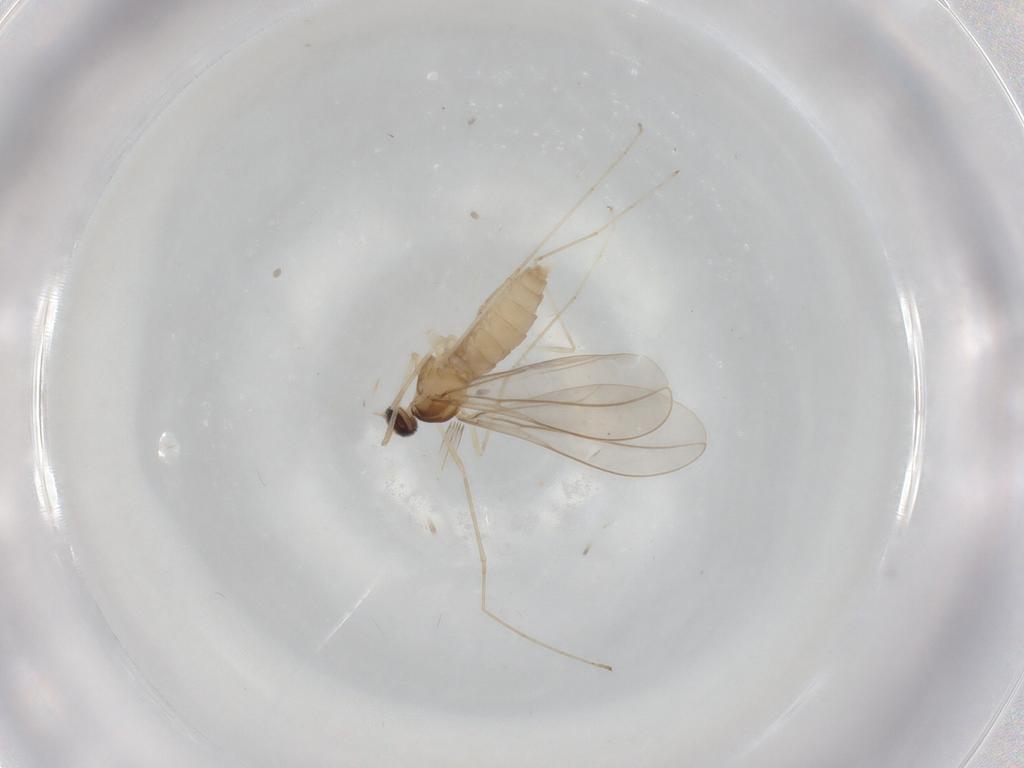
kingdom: Animalia
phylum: Arthropoda
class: Insecta
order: Diptera
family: Cecidomyiidae
